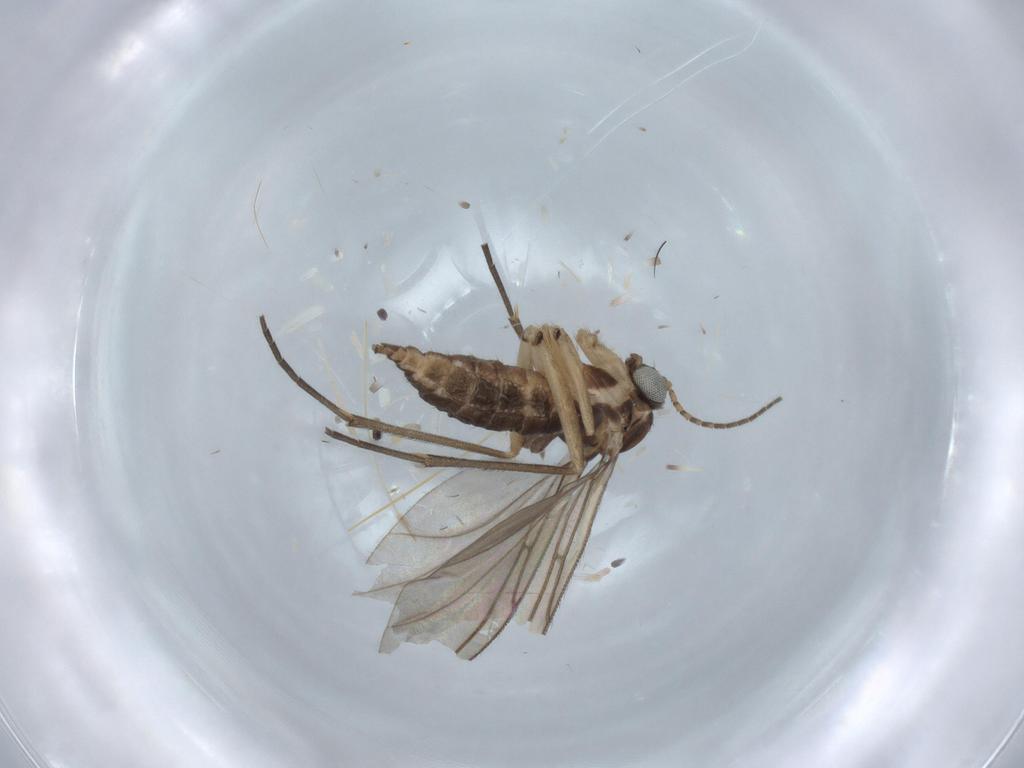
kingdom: Animalia
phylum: Arthropoda
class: Insecta
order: Diptera
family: Sciaridae
